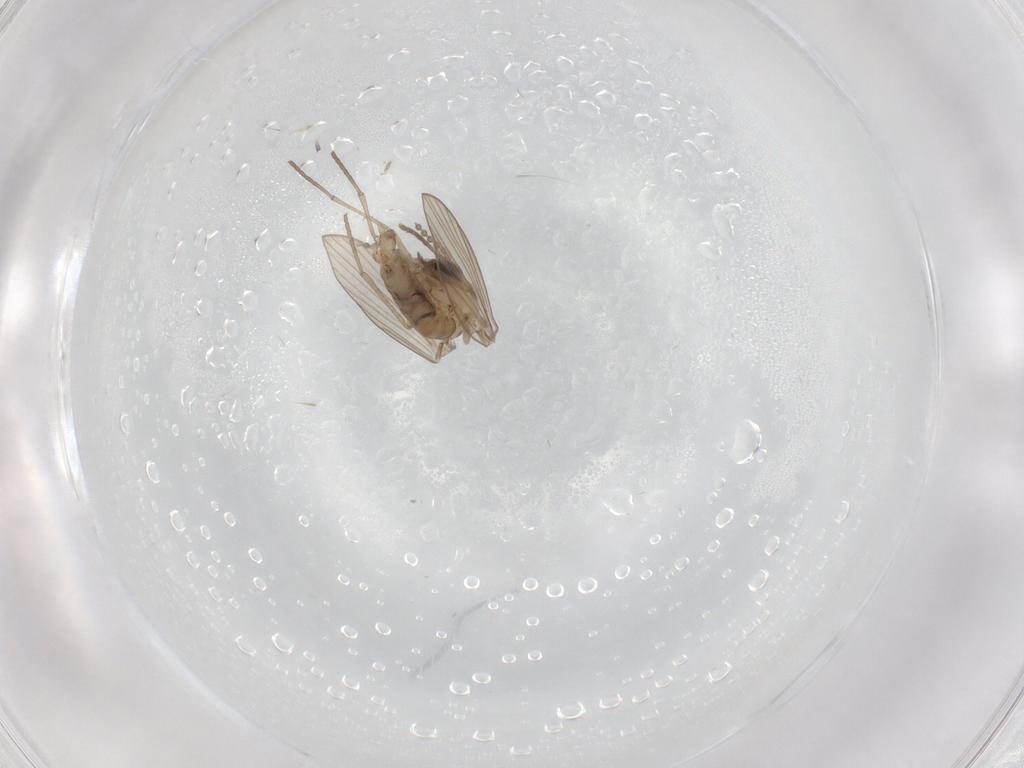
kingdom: Animalia
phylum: Arthropoda
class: Insecta
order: Diptera
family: Psychodidae
